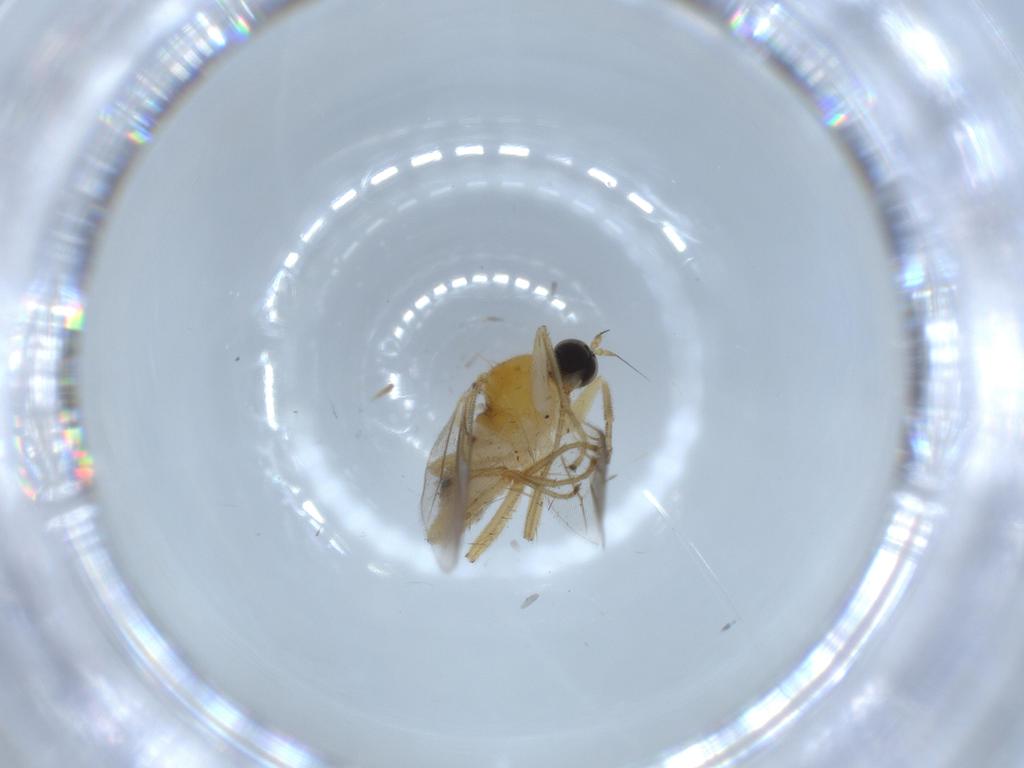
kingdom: Animalia
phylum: Arthropoda
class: Insecta
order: Diptera
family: Hybotidae
